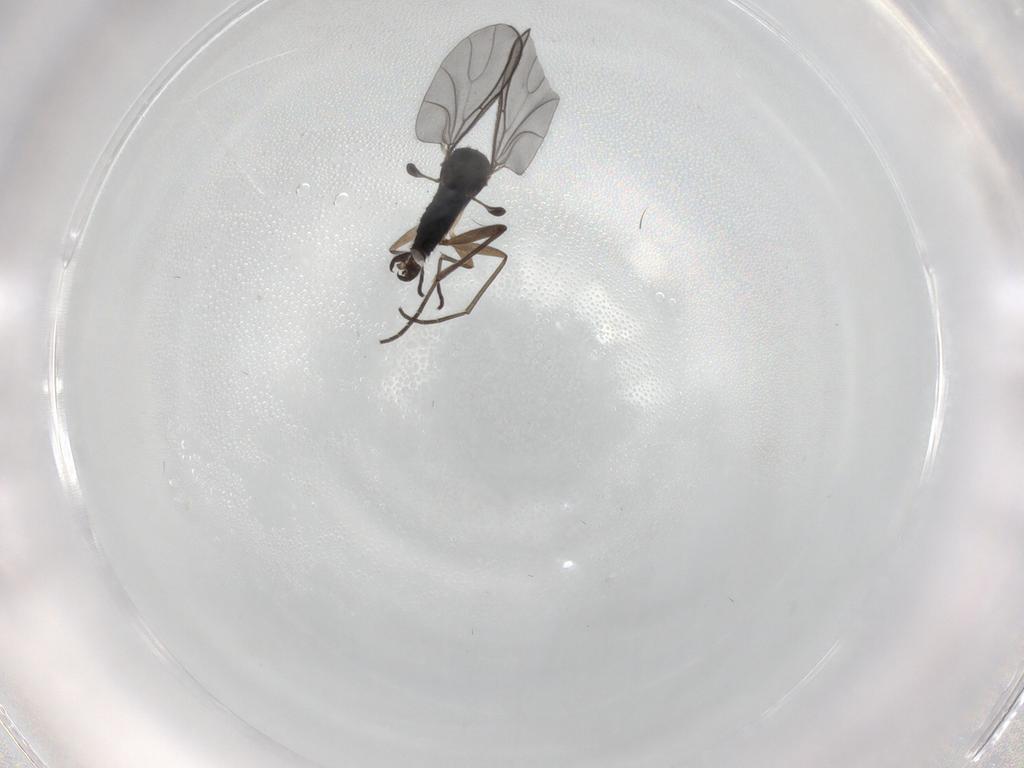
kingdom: Animalia
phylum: Arthropoda
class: Insecta
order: Diptera
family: Sciaridae
